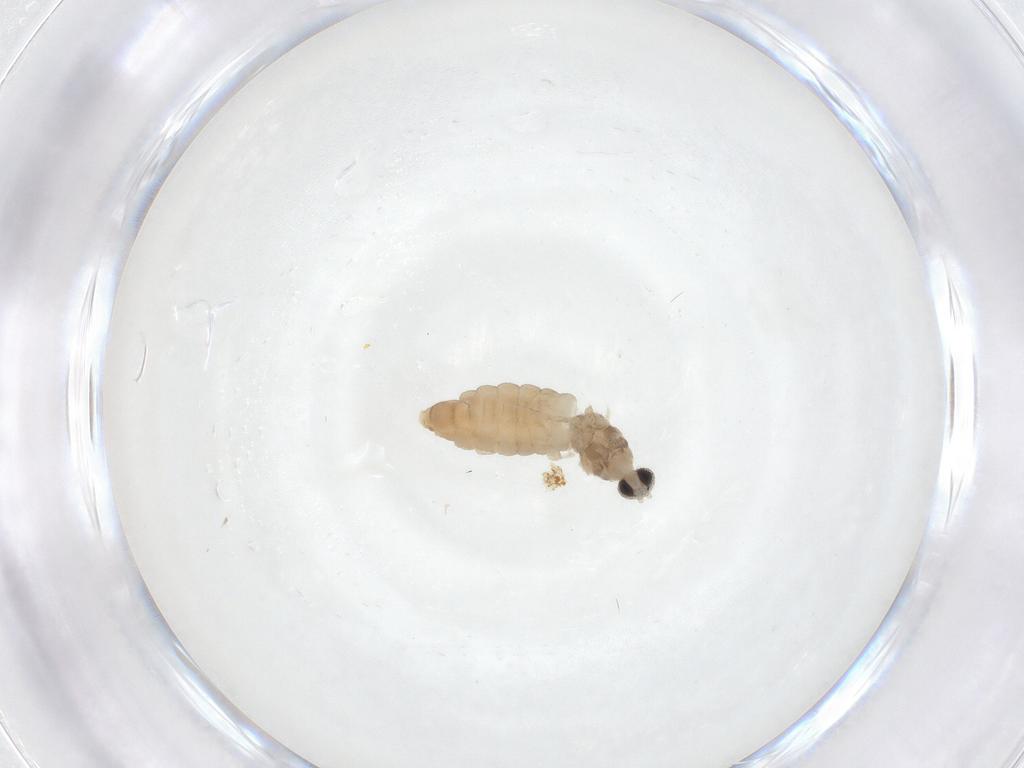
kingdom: Animalia
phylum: Arthropoda
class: Insecta
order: Diptera
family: Cecidomyiidae
